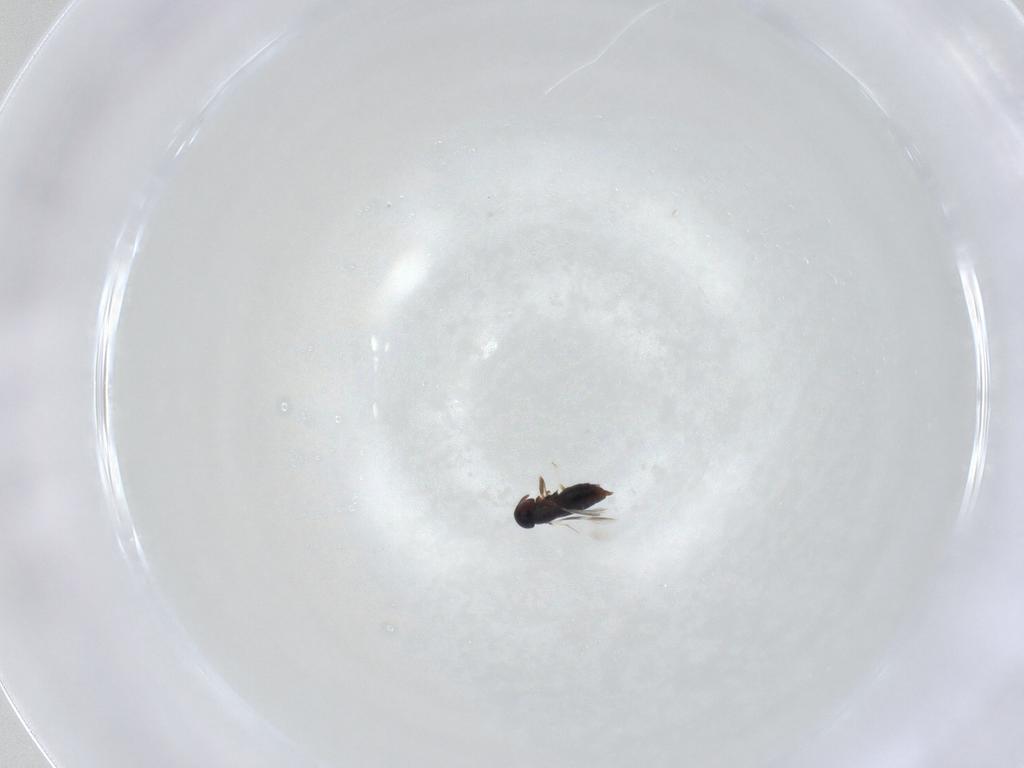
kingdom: Animalia
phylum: Arthropoda
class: Insecta
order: Hymenoptera
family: Signiphoridae
